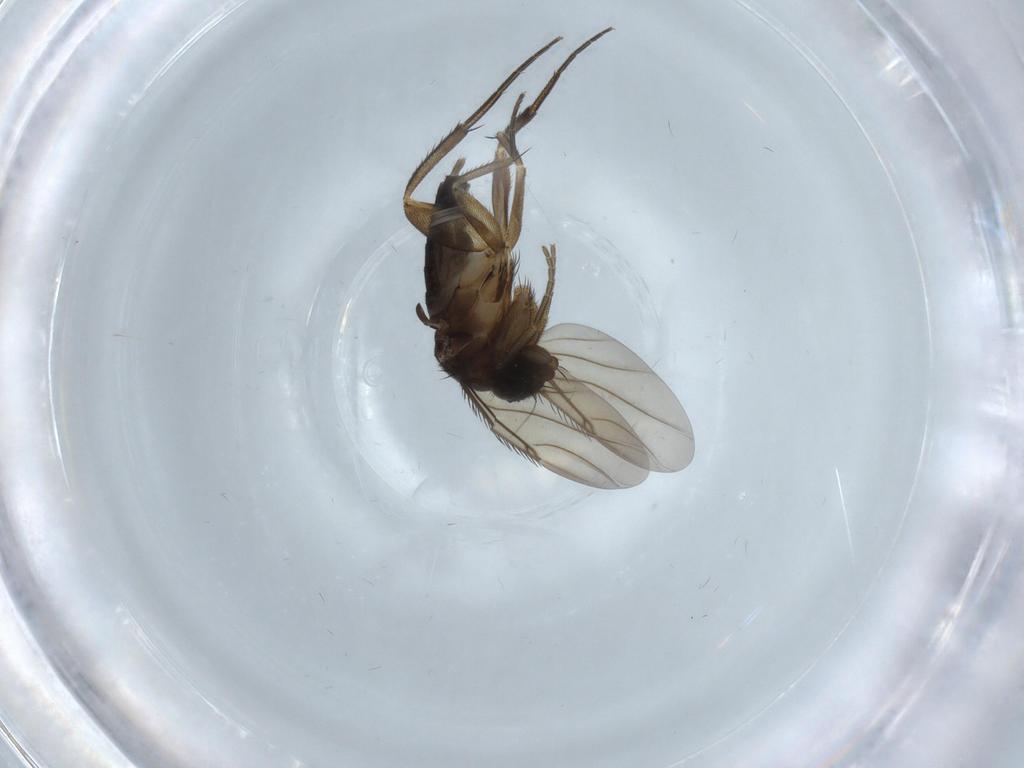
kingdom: Animalia
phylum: Arthropoda
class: Insecta
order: Diptera
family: Phoridae
